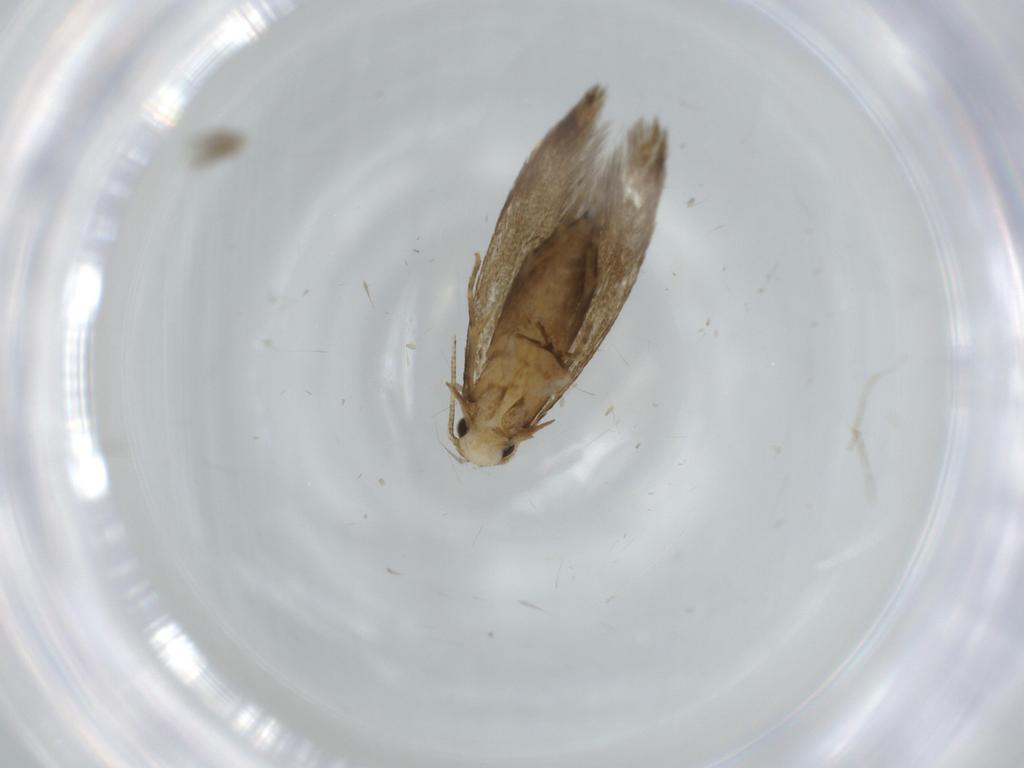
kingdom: Animalia
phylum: Arthropoda
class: Insecta
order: Lepidoptera
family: Tineidae
